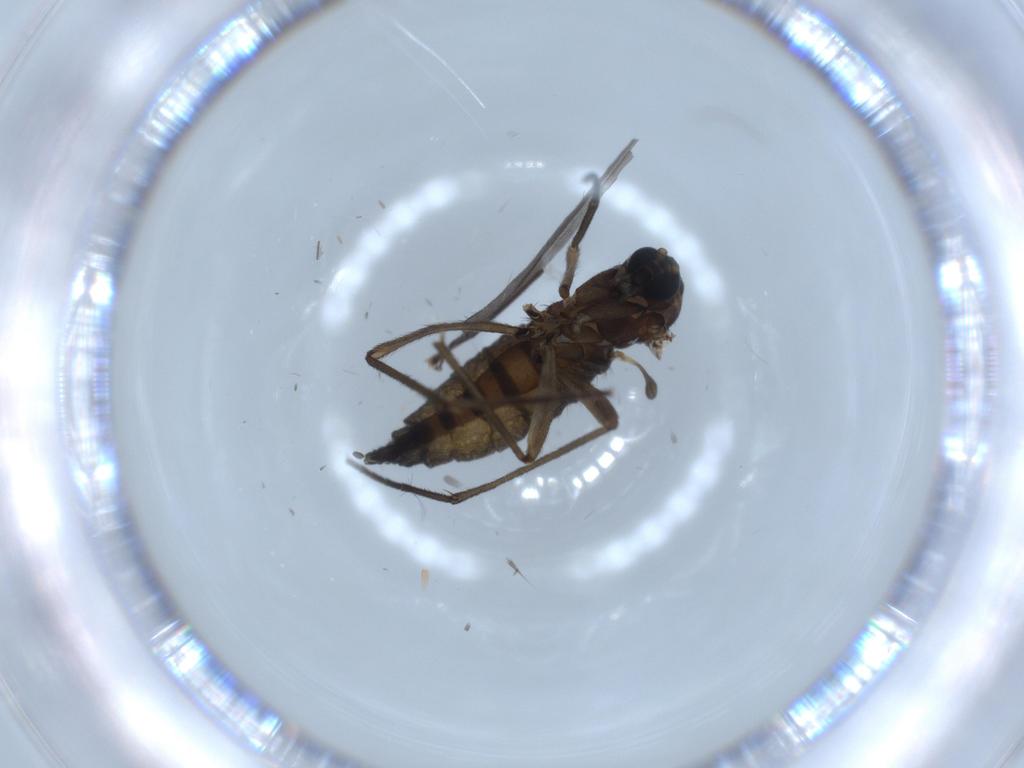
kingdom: Animalia
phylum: Arthropoda
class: Insecta
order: Diptera
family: Sciaridae
